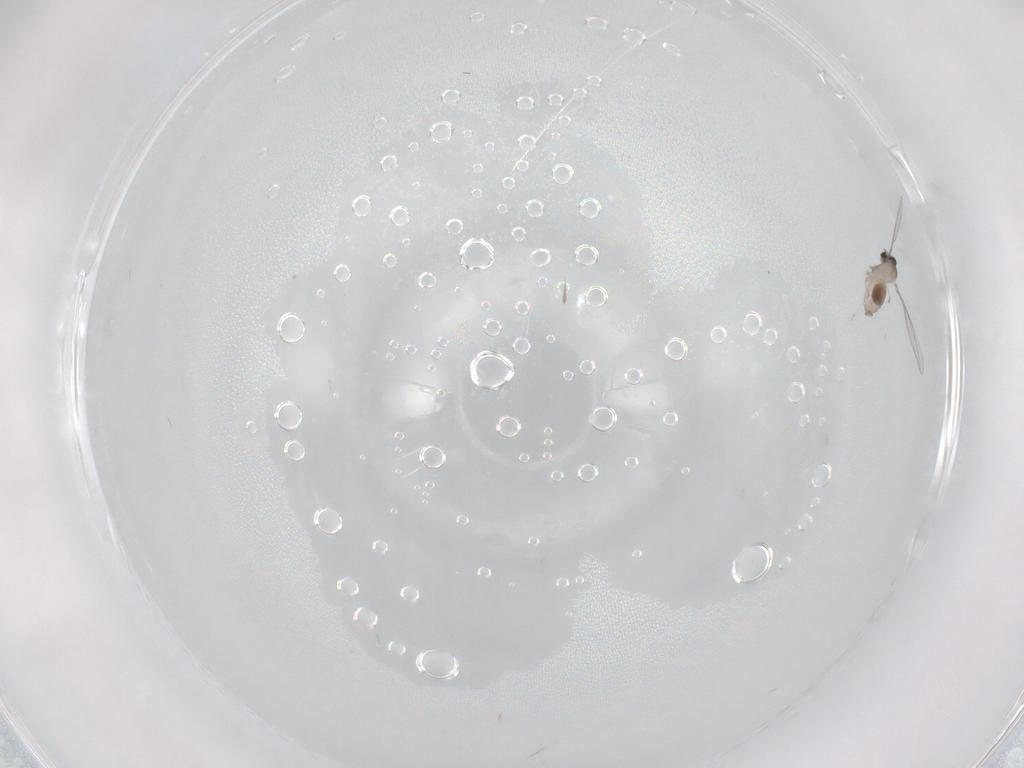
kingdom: Animalia
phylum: Arthropoda
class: Insecta
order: Diptera
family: Cecidomyiidae
